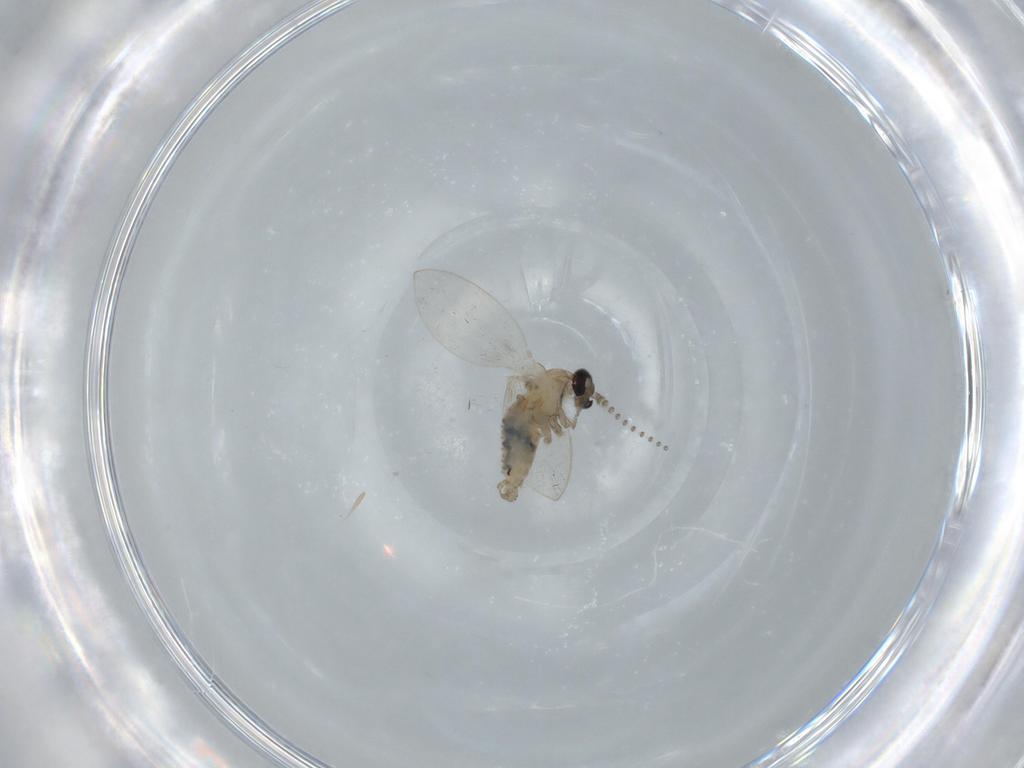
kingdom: Animalia
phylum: Arthropoda
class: Insecta
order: Diptera
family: Psychodidae
